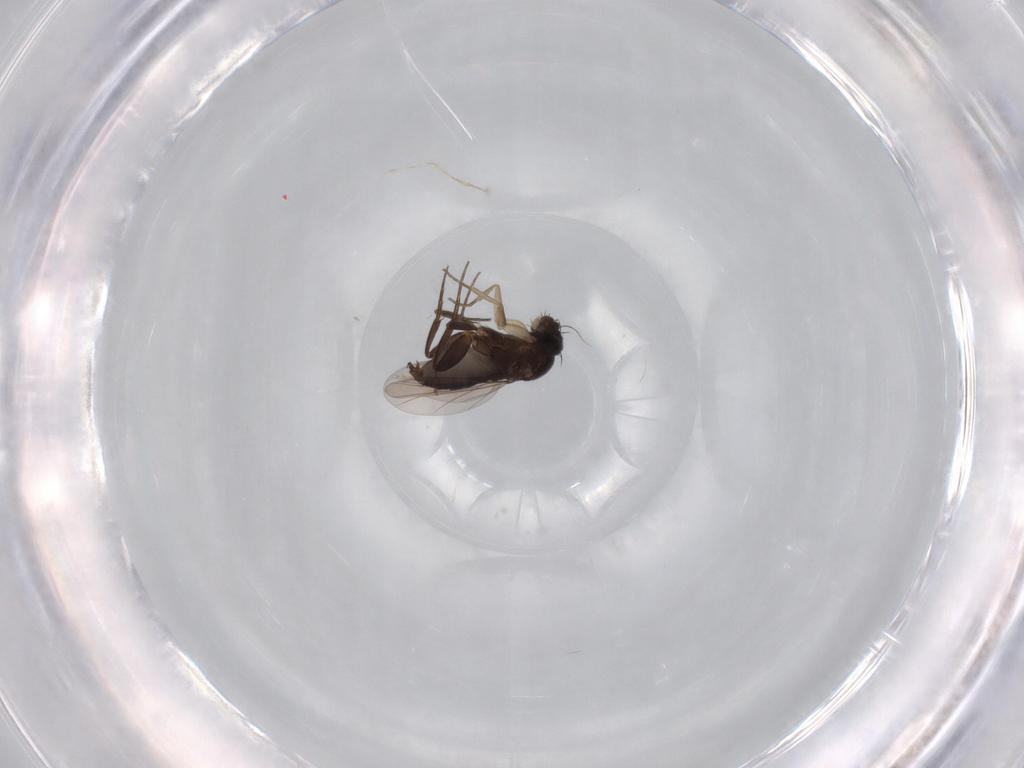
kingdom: Animalia
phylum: Arthropoda
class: Insecta
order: Diptera
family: Phoridae
